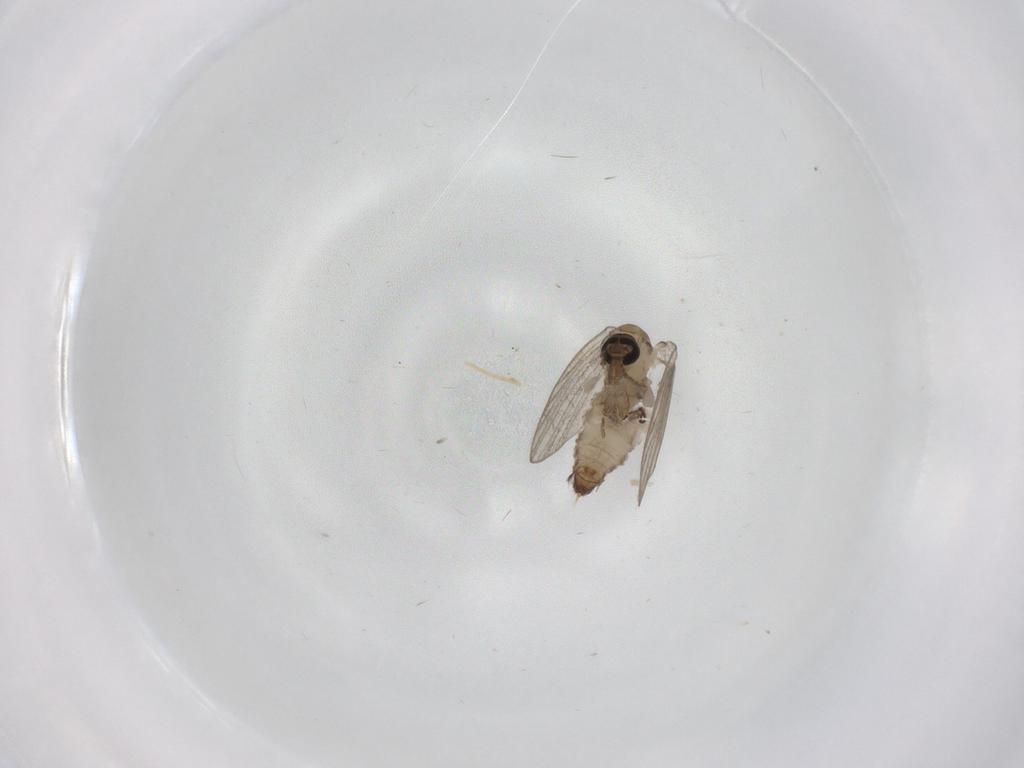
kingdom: Animalia
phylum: Arthropoda
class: Insecta
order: Diptera
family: Psychodidae
